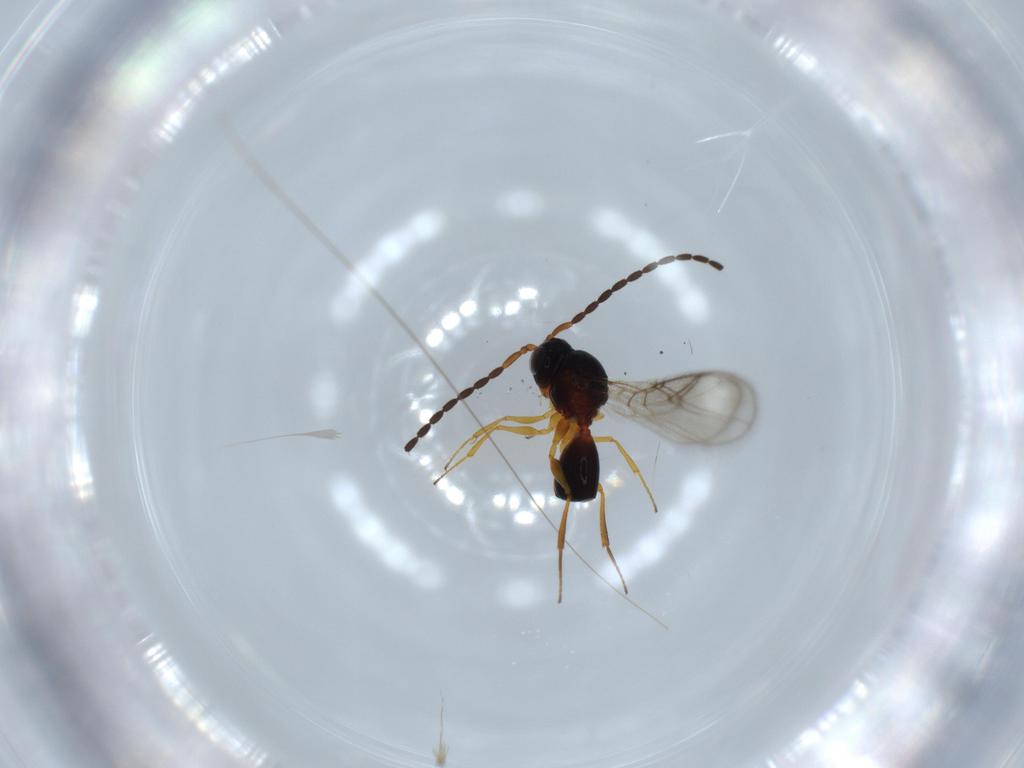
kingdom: Animalia
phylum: Arthropoda
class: Insecta
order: Hymenoptera
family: Figitidae
